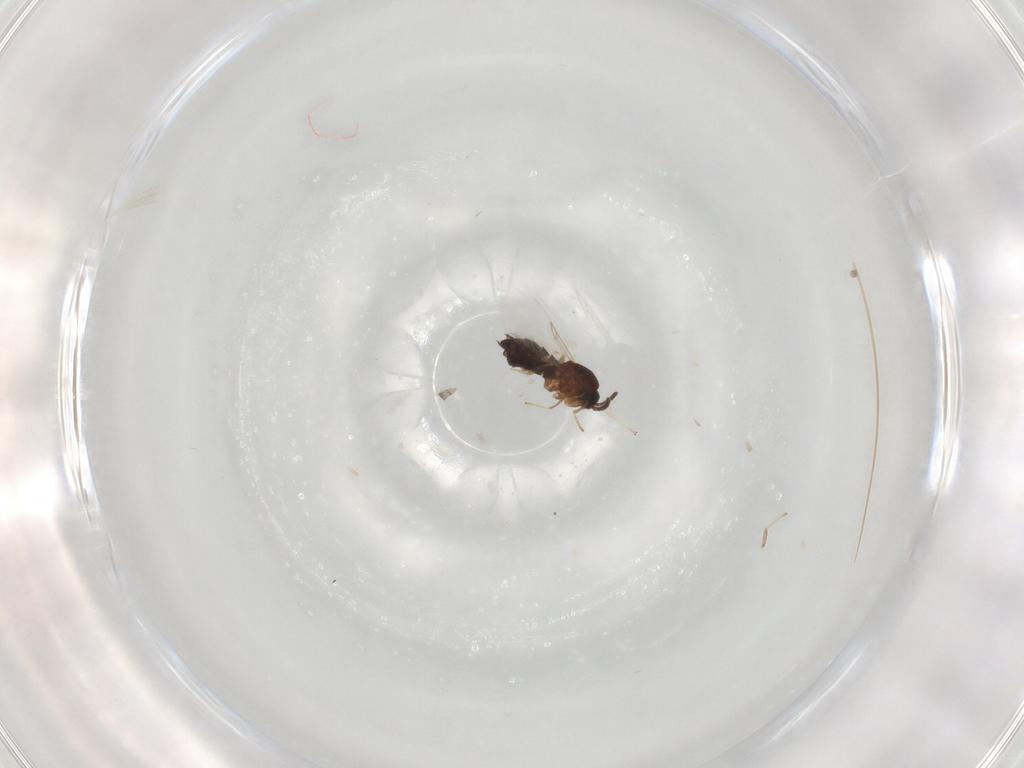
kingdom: Animalia
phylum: Arthropoda
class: Insecta
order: Diptera
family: Scatopsidae
